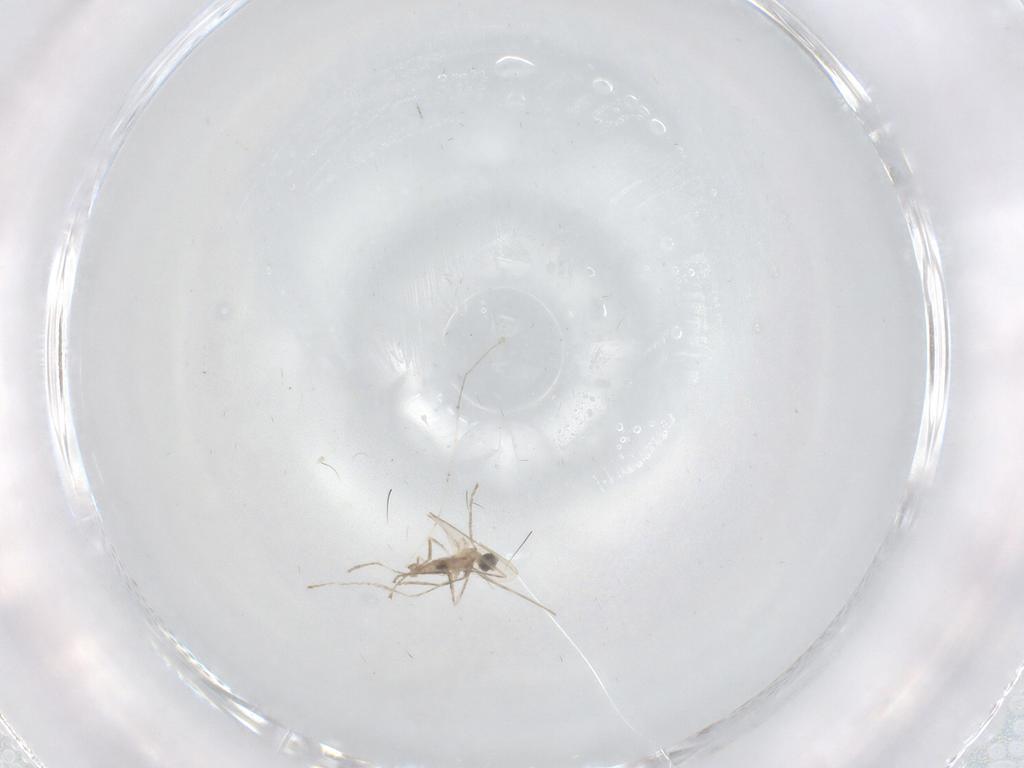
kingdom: Animalia
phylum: Arthropoda
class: Insecta
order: Diptera
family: Cecidomyiidae
